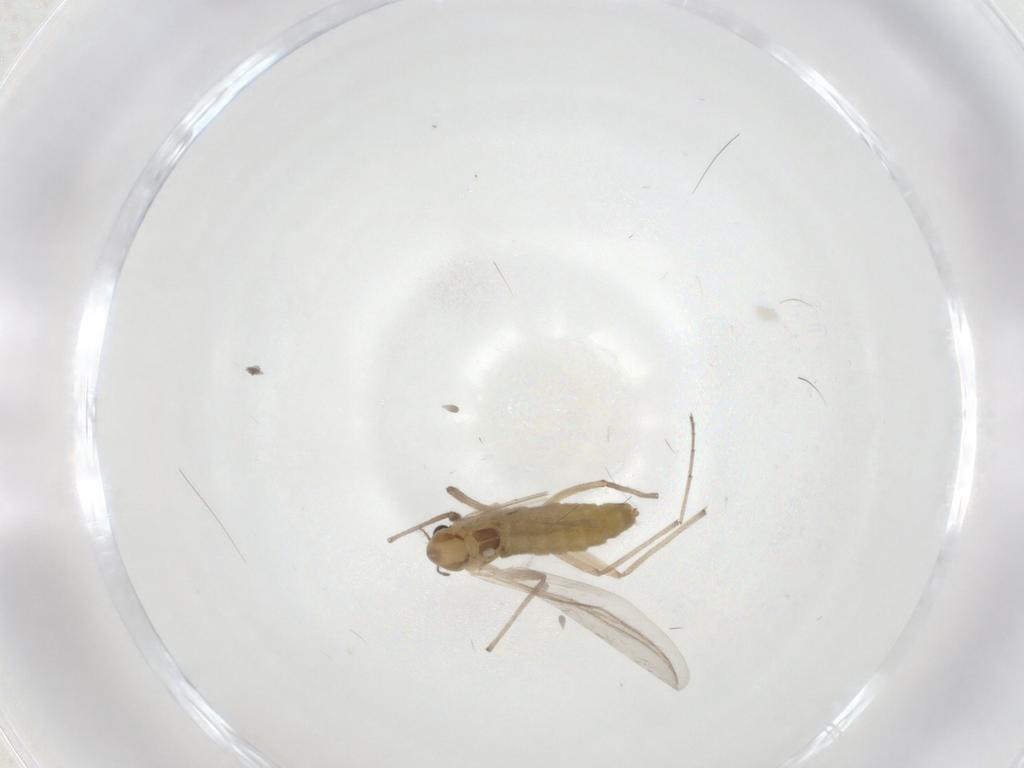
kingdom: Animalia
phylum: Arthropoda
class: Insecta
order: Diptera
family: Chironomidae
